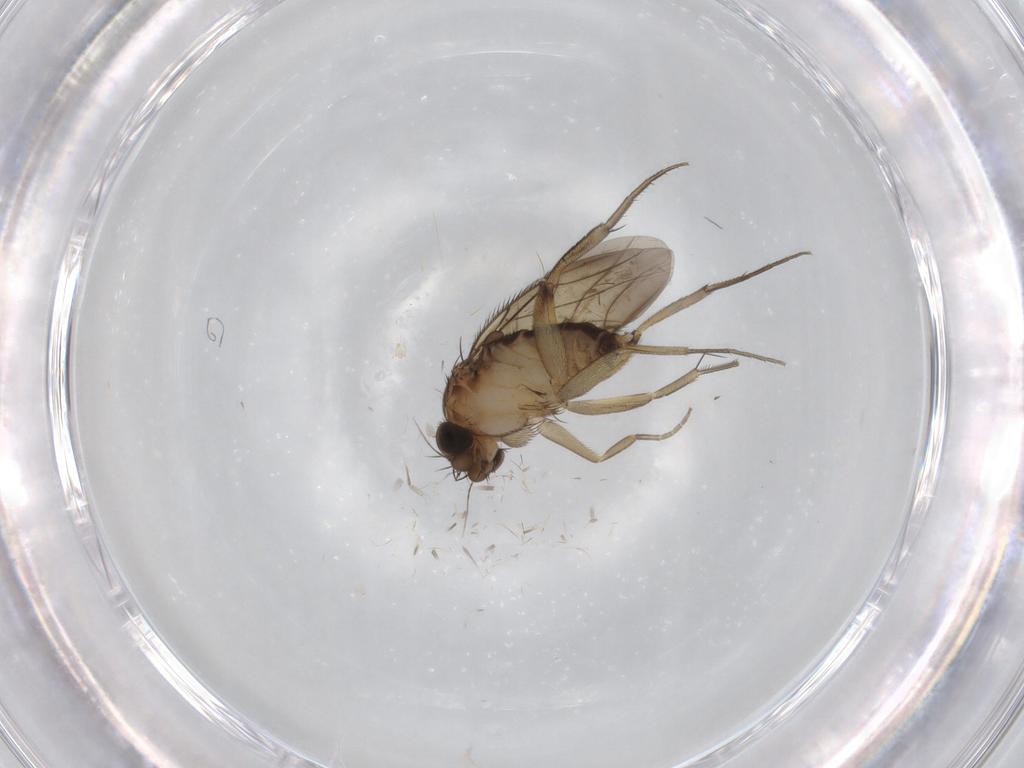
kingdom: Animalia
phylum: Arthropoda
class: Insecta
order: Diptera
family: Phoridae
